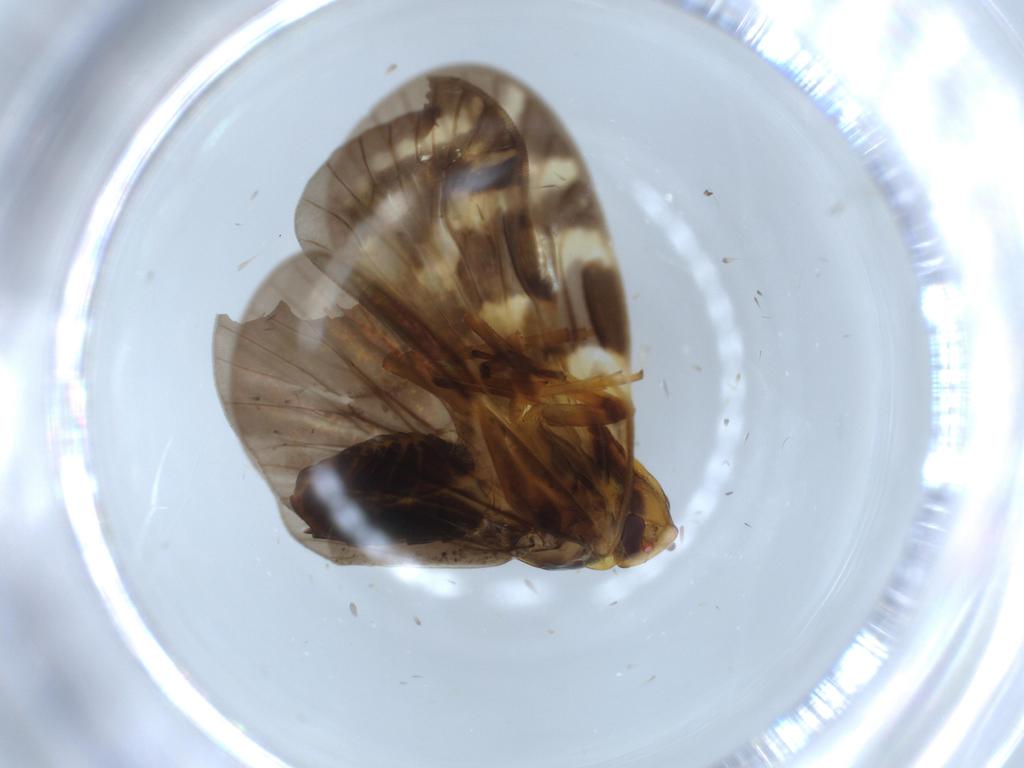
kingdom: Animalia
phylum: Arthropoda
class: Insecta
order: Hemiptera
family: Cixiidae
